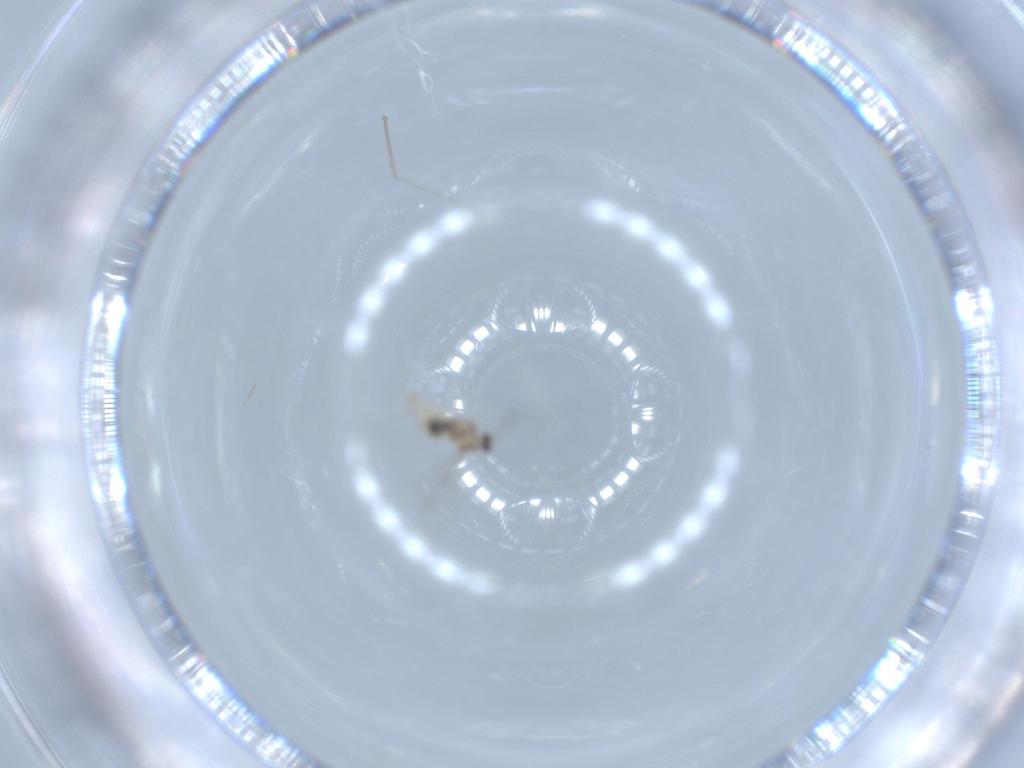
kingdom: Animalia
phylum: Arthropoda
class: Insecta
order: Diptera
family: Cecidomyiidae
